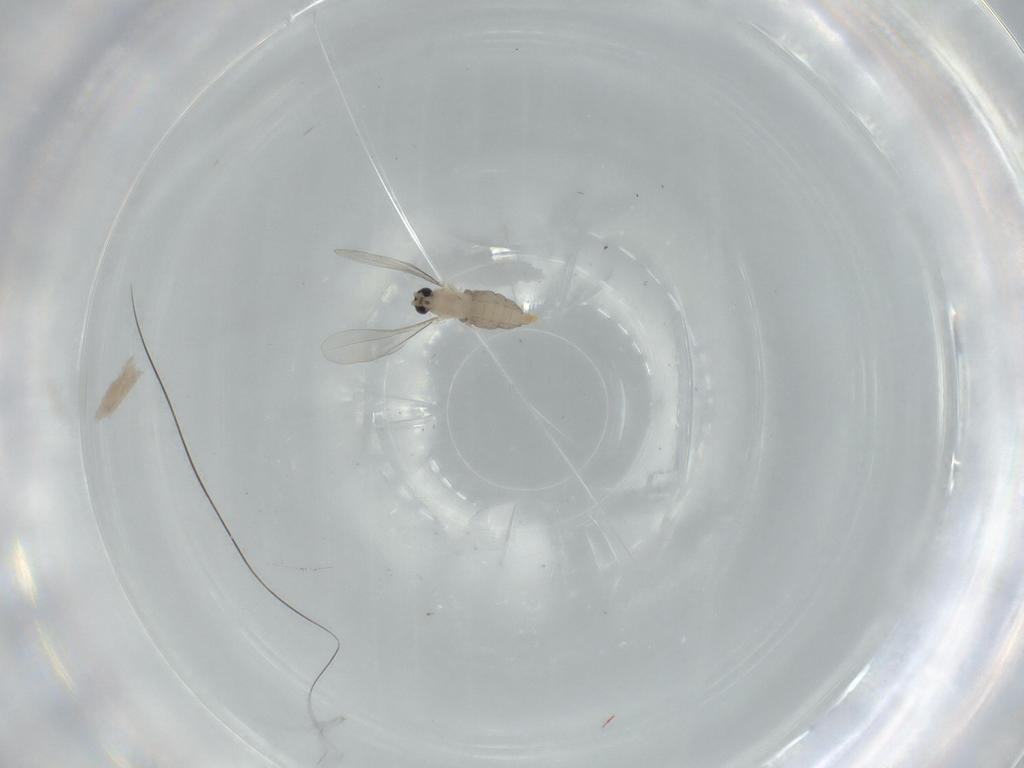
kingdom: Animalia
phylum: Arthropoda
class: Insecta
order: Diptera
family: Cecidomyiidae
